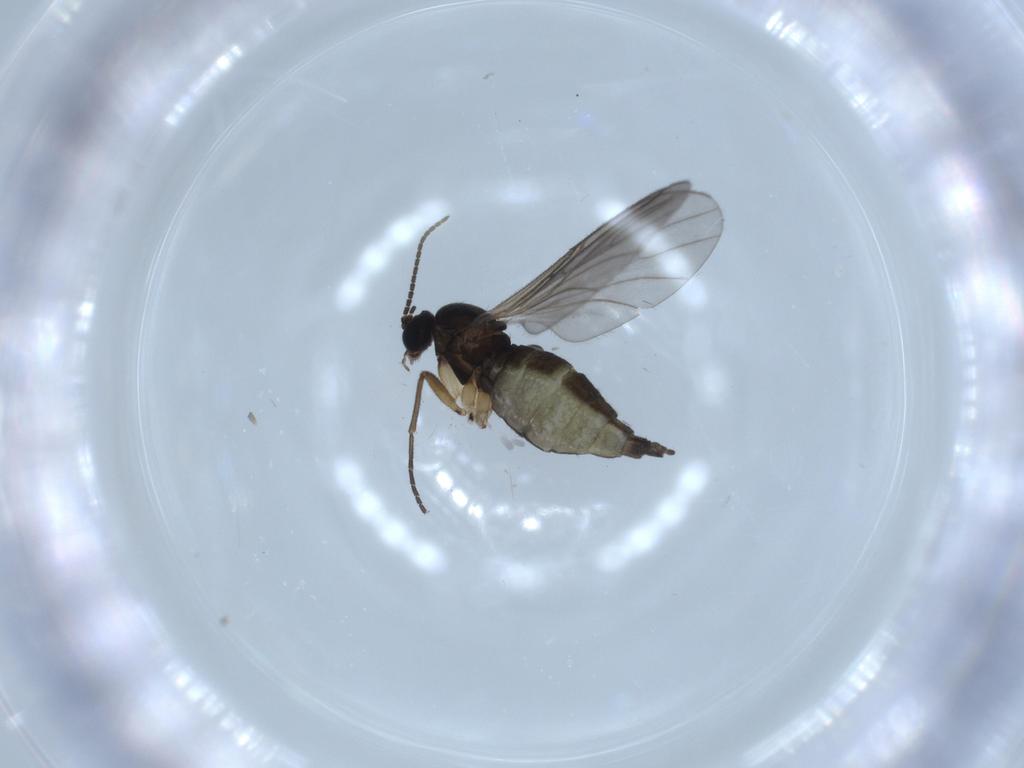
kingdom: Animalia
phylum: Arthropoda
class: Insecta
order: Diptera
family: Sciaridae
